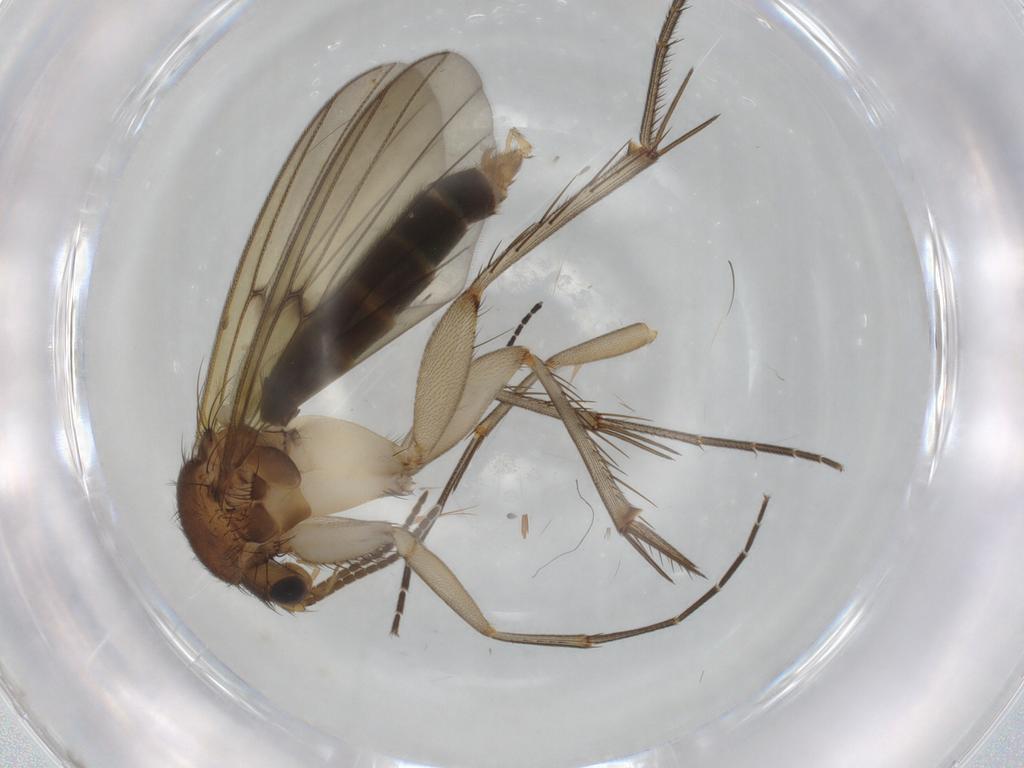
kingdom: Animalia
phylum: Arthropoda
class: Insecta
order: Diptera
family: Mycetophilidae
